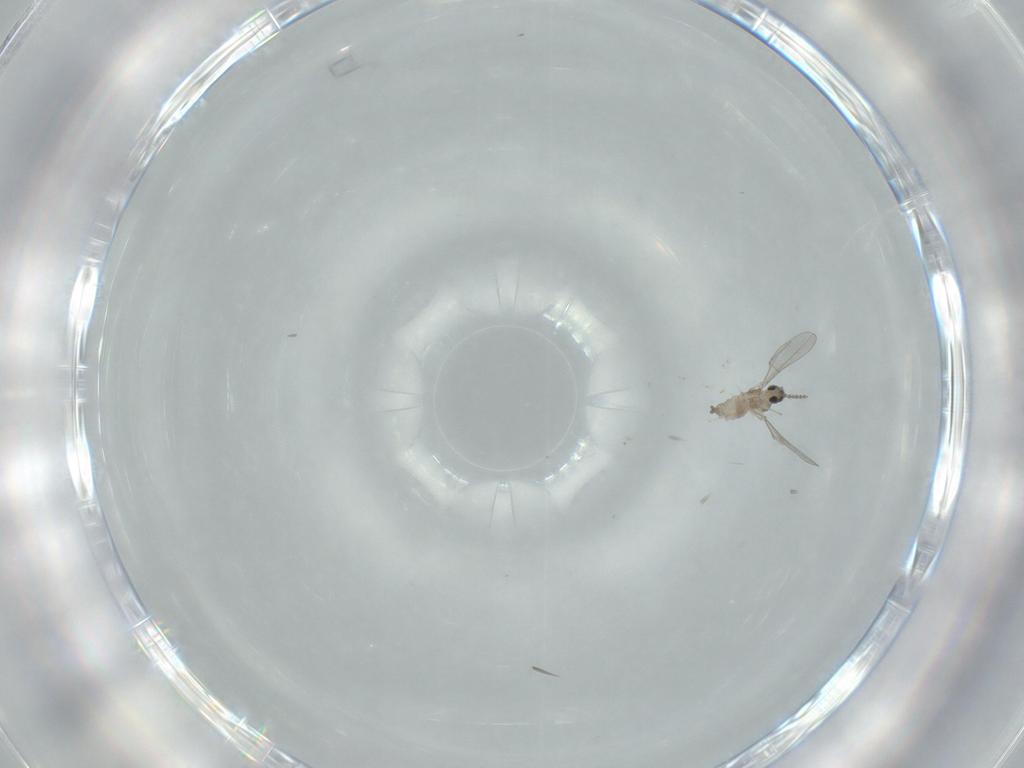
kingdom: Animalia
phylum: Arthropoda
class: Insecta
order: Diptera
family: Cecidomyiidae
